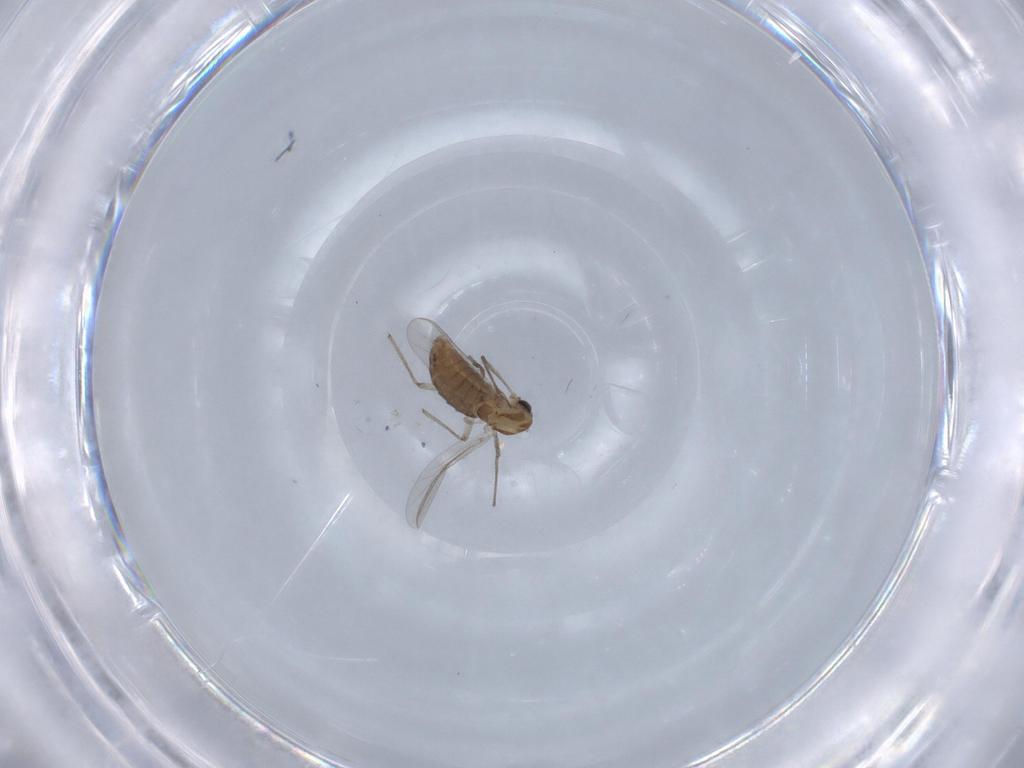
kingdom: Animalia
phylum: Arthropoda
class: Insecta
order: Diptera
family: Chironomidae
